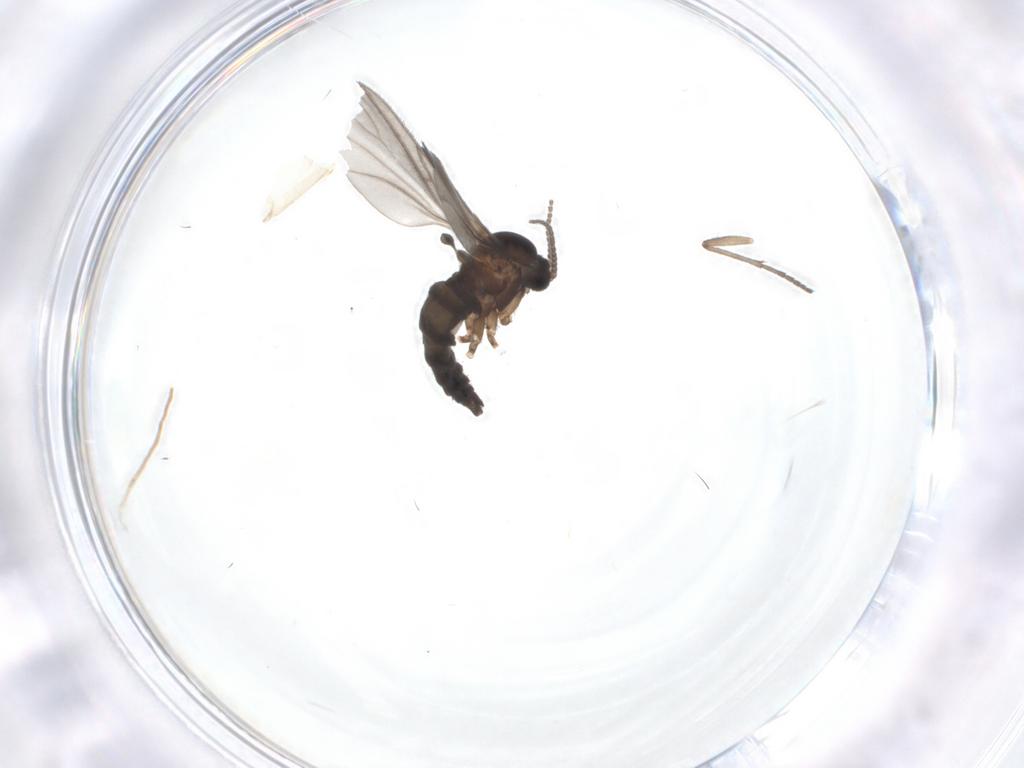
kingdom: Animalia
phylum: Arthropoda
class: Insecta
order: Diptera
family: Sciaridae
